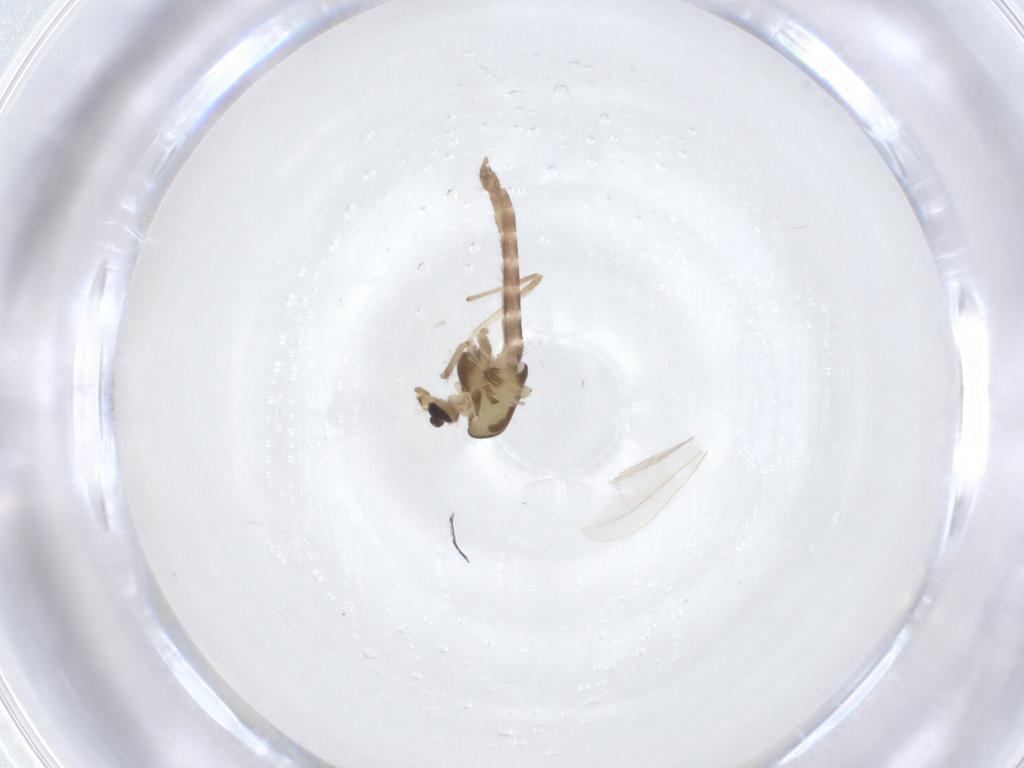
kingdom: Animalia
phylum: Arthropoda
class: Insecta
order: Diptera
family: Chironomidae
